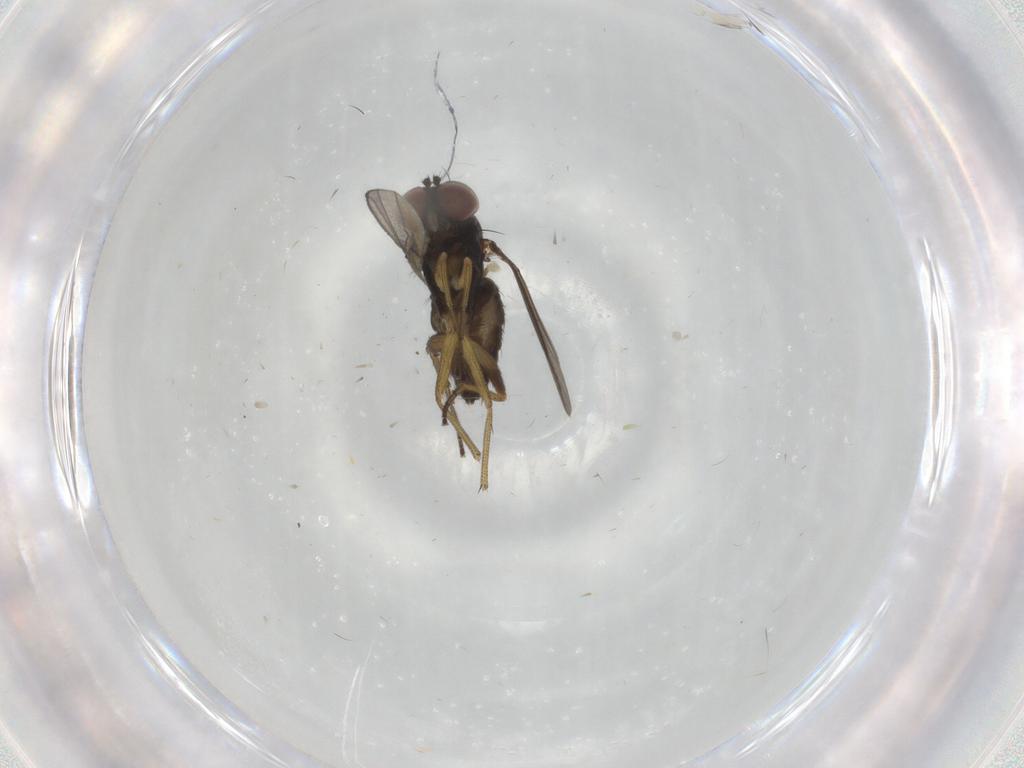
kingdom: Animalia
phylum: Arthropoda
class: Insecta
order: Diptera
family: Dolichopodidae
